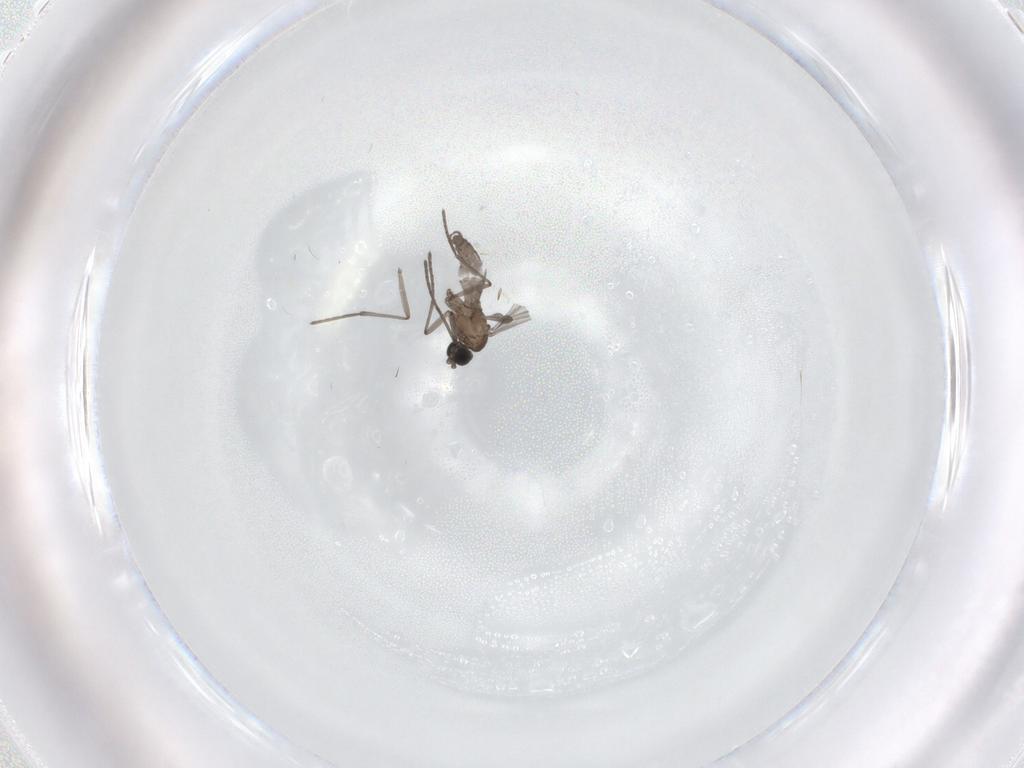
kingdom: Animalia
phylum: Arthropoda
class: Insecta
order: Diptera
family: Sciaridae
